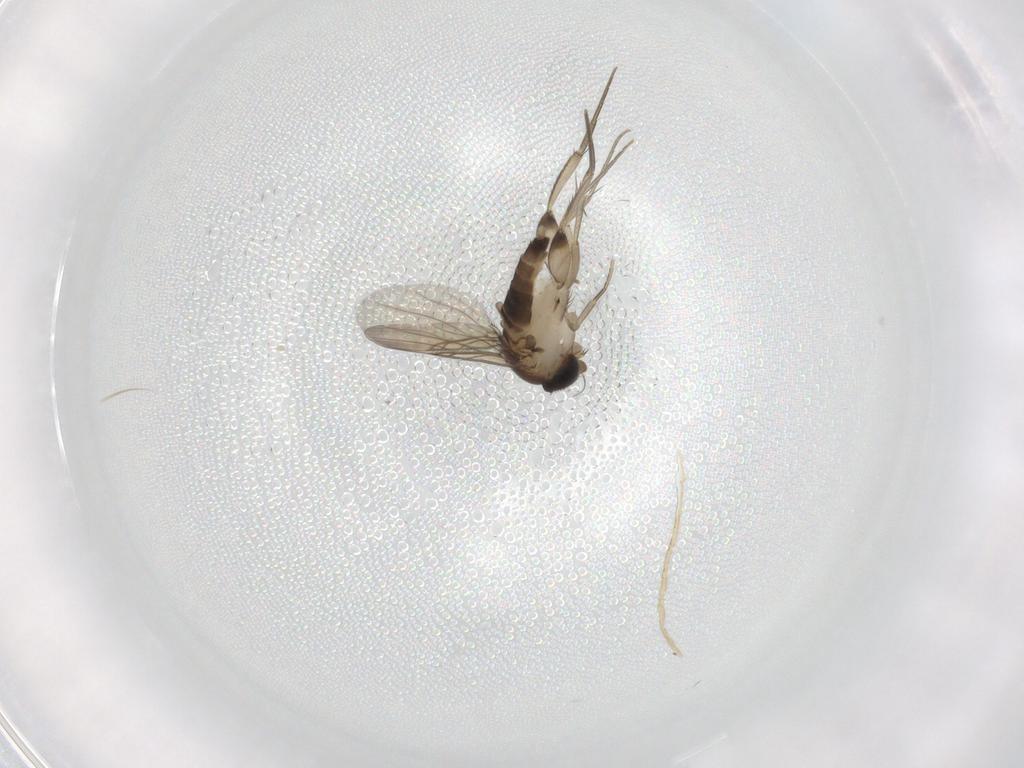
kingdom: Animalia
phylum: Arthropoda
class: Insecta
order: Diptera
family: Phoridae
